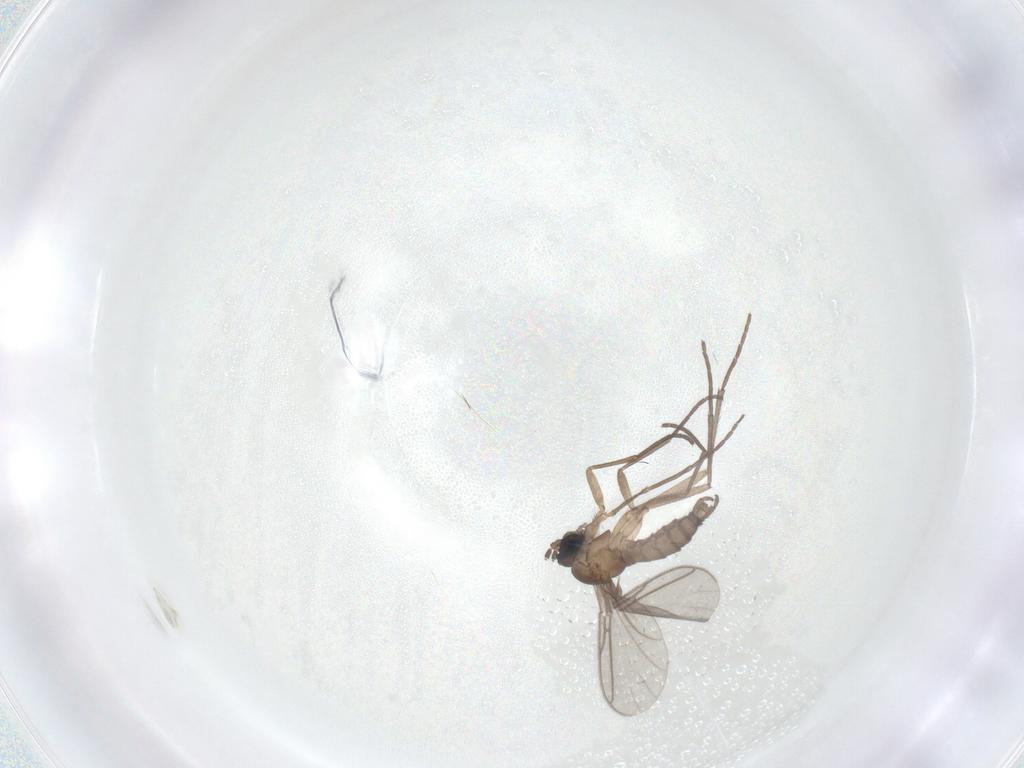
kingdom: Animalia
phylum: Arthropoda
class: Insecta
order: Diptera
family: Sciaridae
